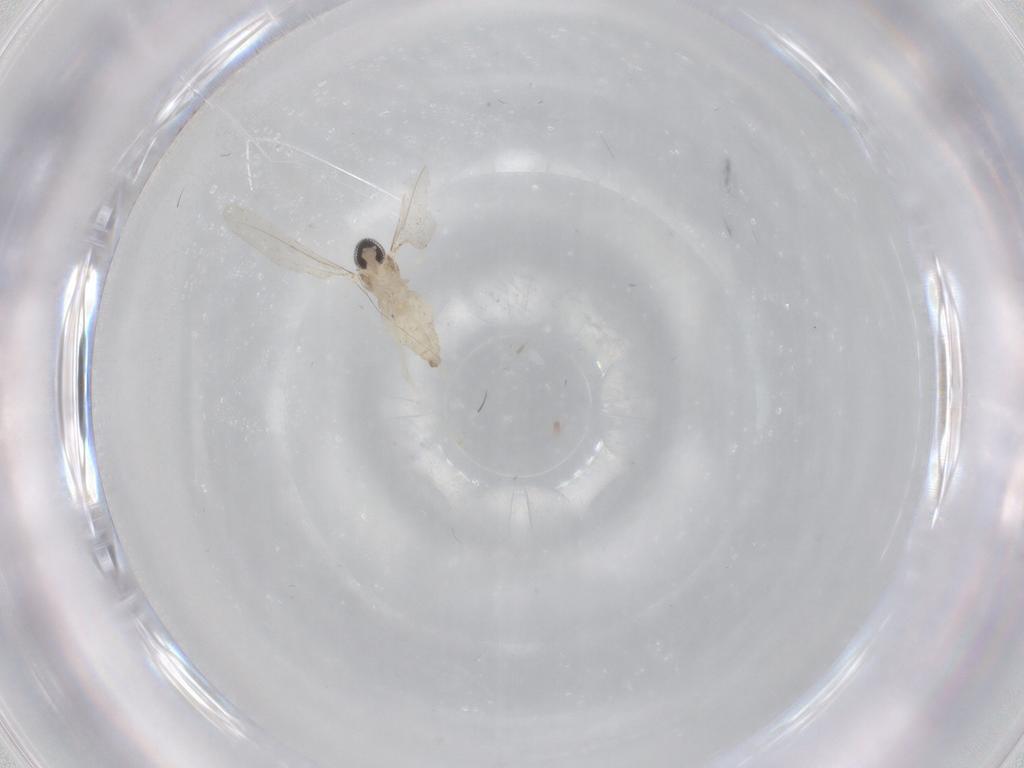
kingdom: Animalia
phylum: Arthropoda
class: Insecta
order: Diptera
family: Cecidomyiidae
